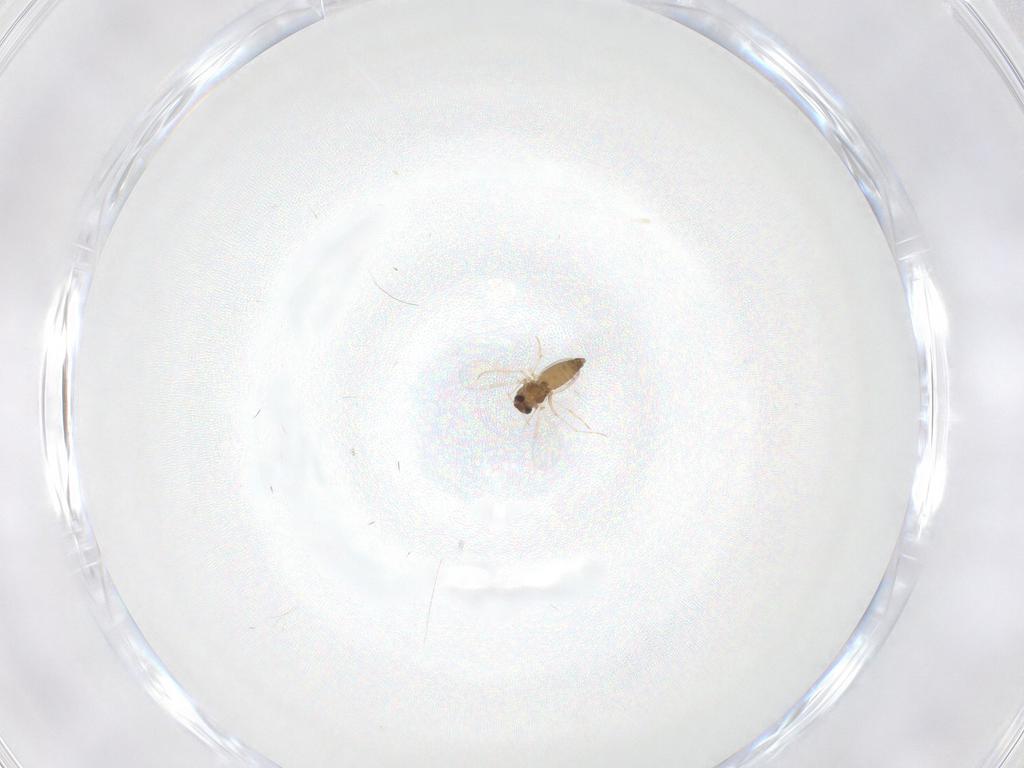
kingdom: Animalia
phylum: Arthropoda
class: Insecta
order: Diptera
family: Chironomidae
